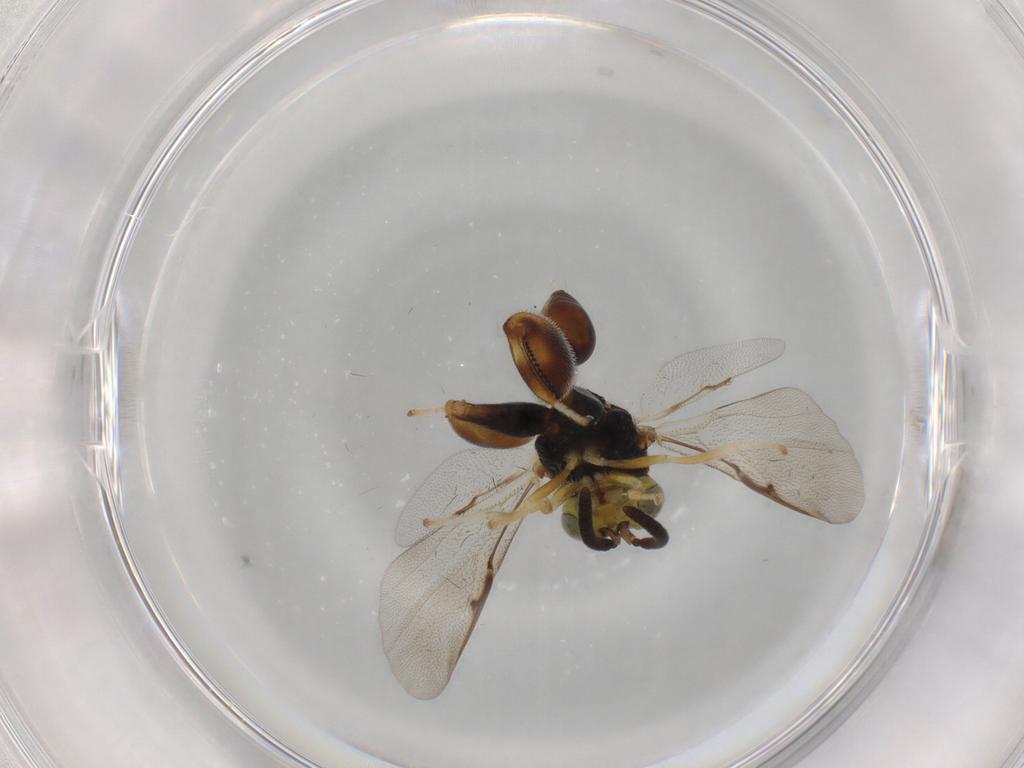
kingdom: Animalia
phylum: Arthropoda
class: Insecta
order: Hymenoptera
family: Chalcididae
